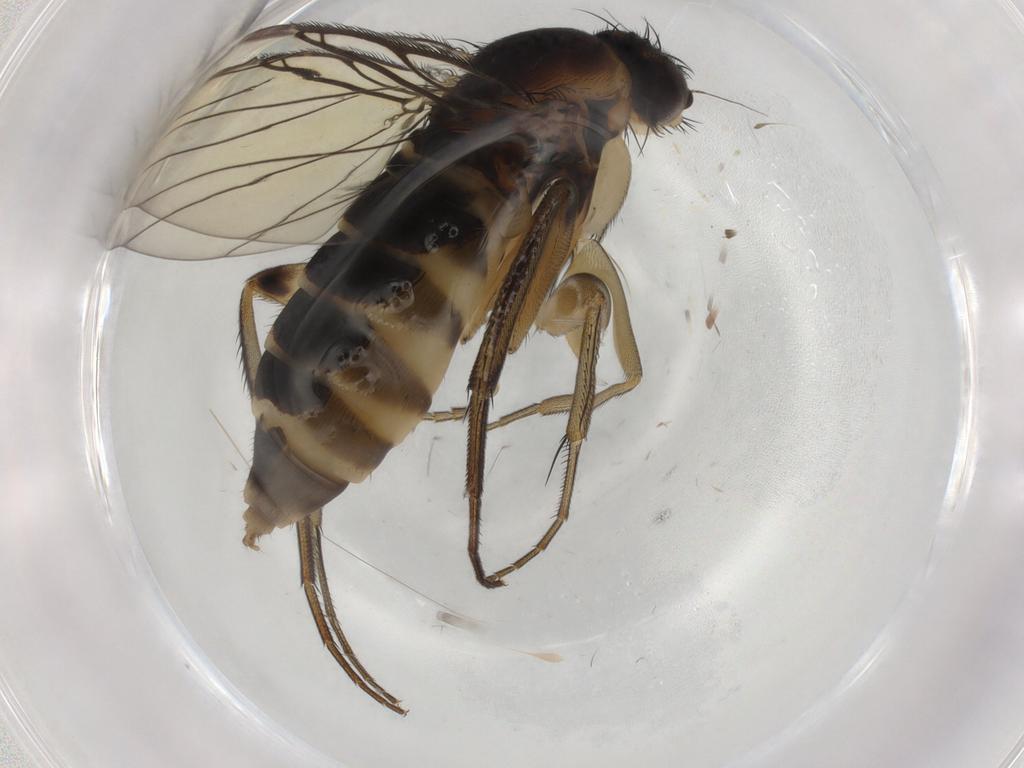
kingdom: Animalia
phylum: Arthropoda
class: Insecta
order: Diptera
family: Phoridae
